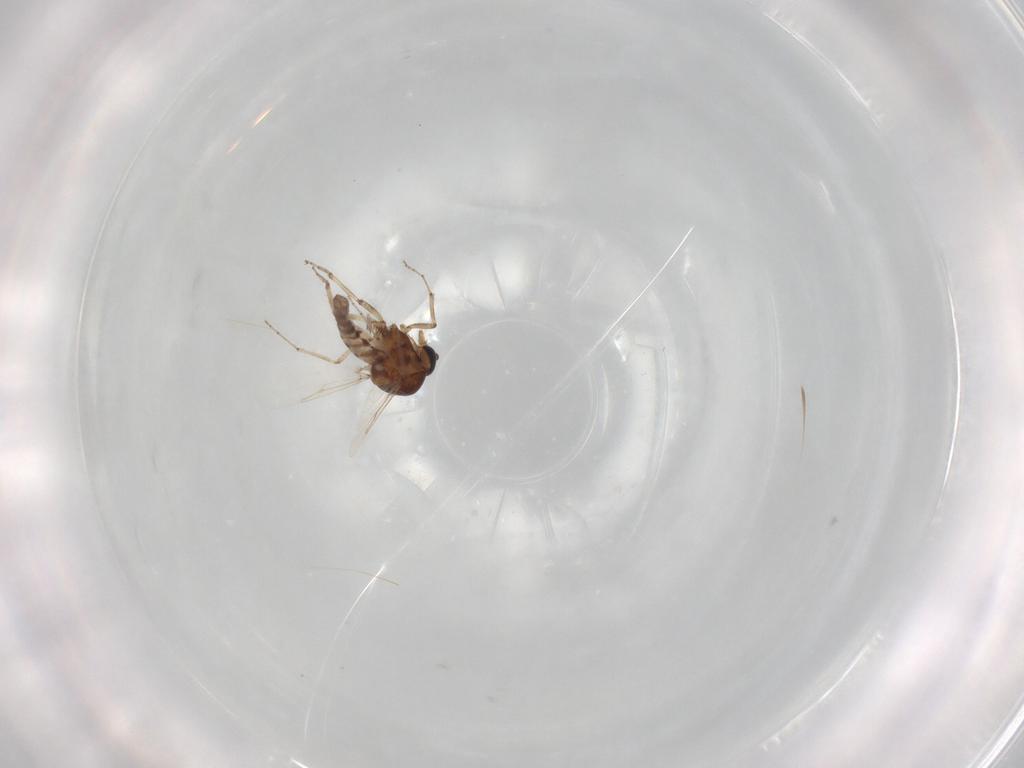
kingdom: Animalia
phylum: Arthropoda
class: Insecta
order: Diptera
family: Ceratopogonidae
